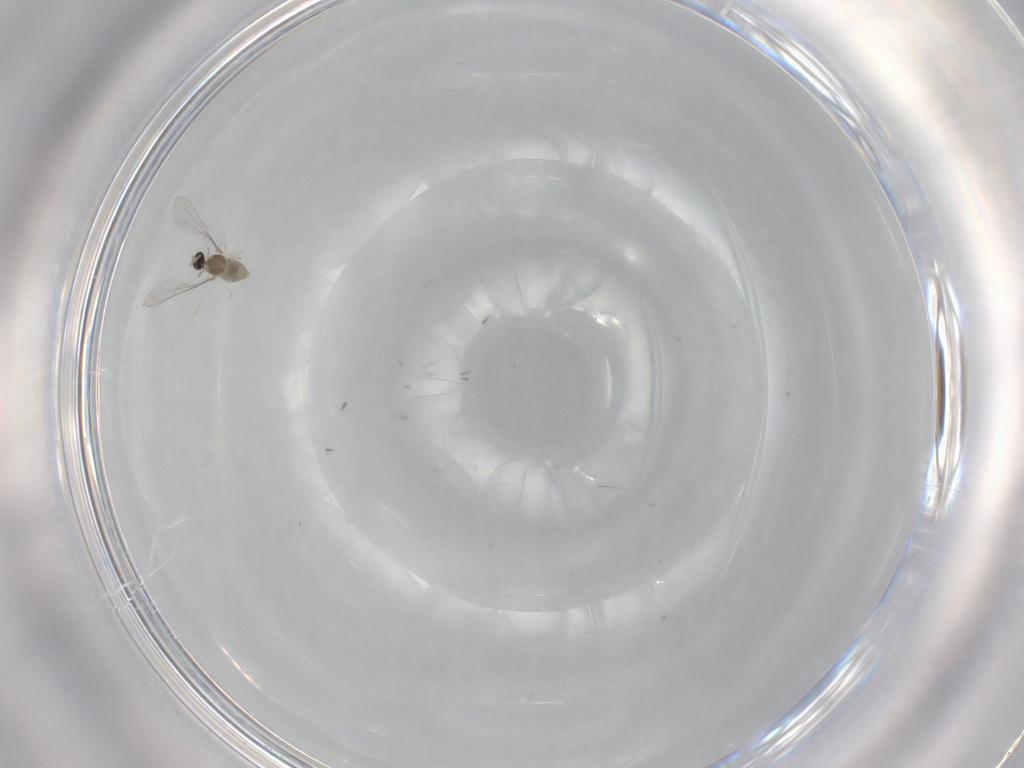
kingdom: Animalia
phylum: Arthropoda
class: Insecta
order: Diptera
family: Cecidomyiidae
